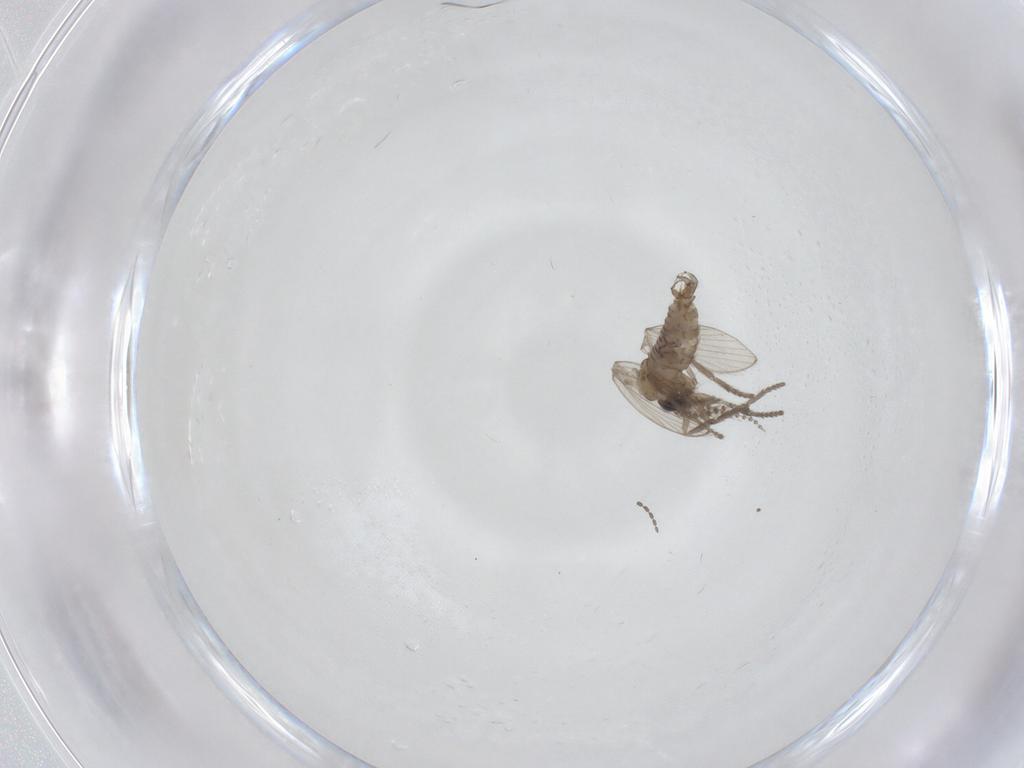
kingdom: Animalia
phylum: Arthropoda
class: Insecta
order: Diptera
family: Psychodidae
